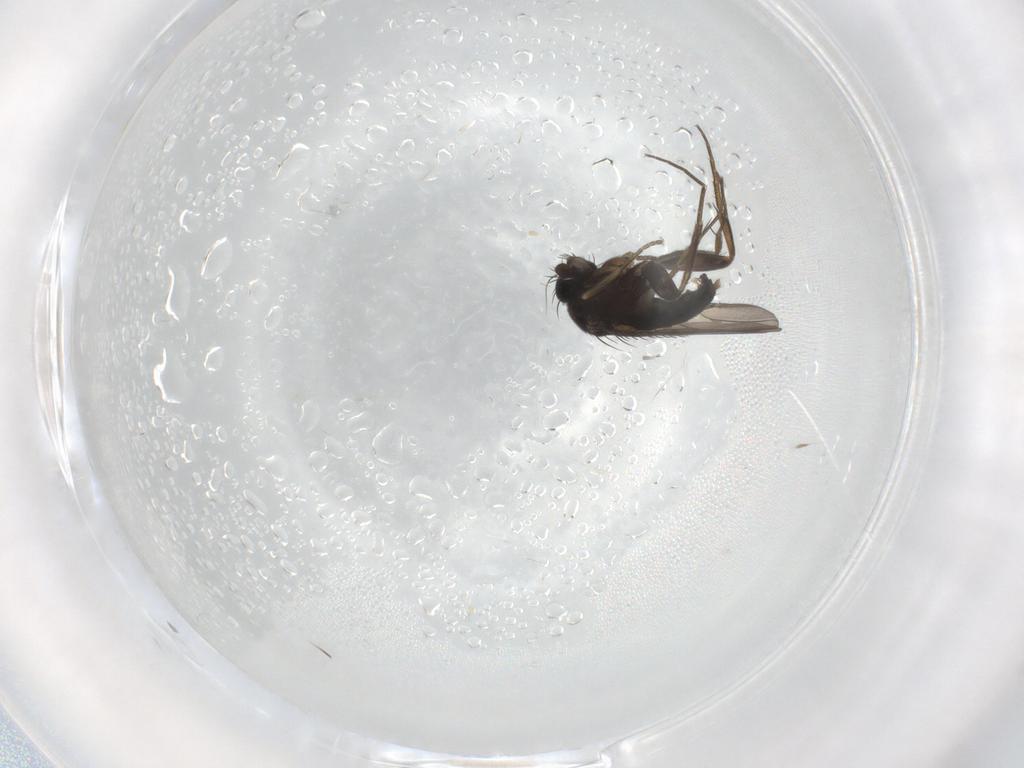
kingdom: Animalia
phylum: Arthropoda
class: Insecta
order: Diptera
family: Phoridae
